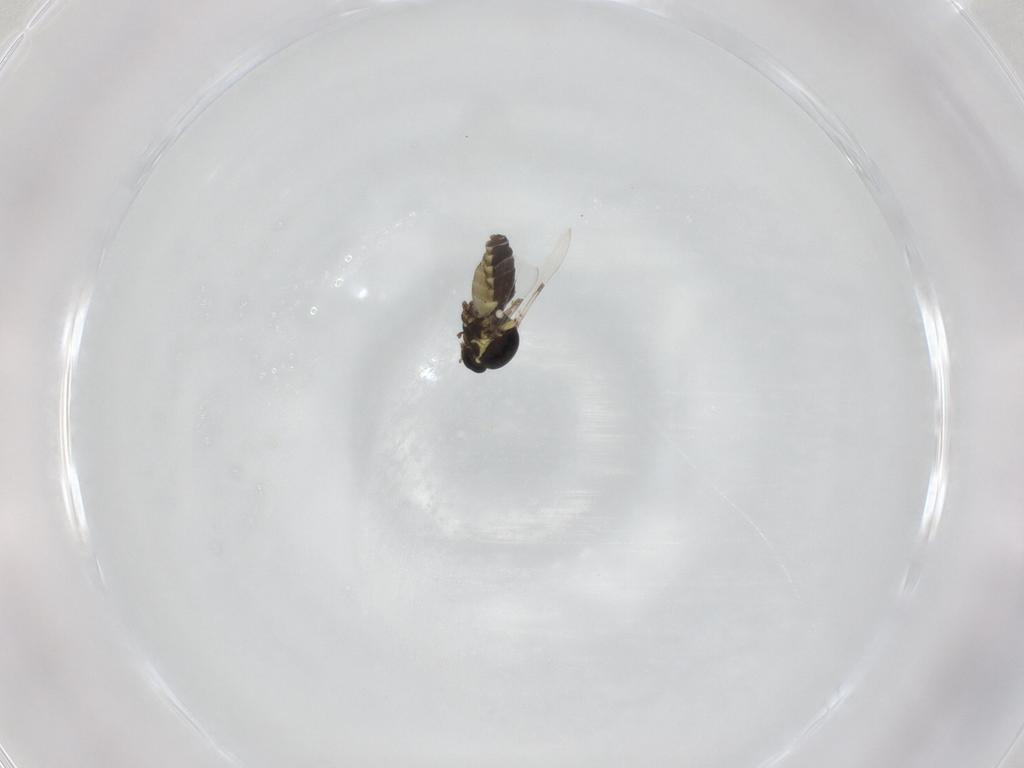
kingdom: Animalia
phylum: Arthropoda
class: Insecta
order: Diptera
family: Ceratopogonidae
